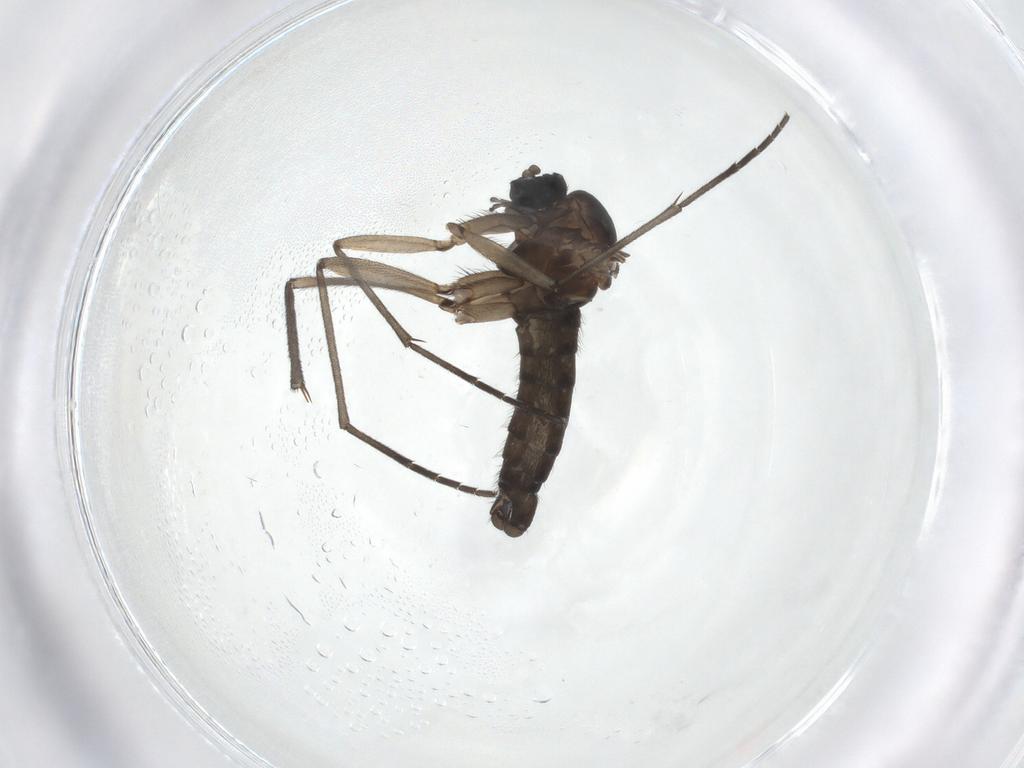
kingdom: Animalia
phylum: Arthropoda
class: Insecta
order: Diptera
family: Sciaridae
